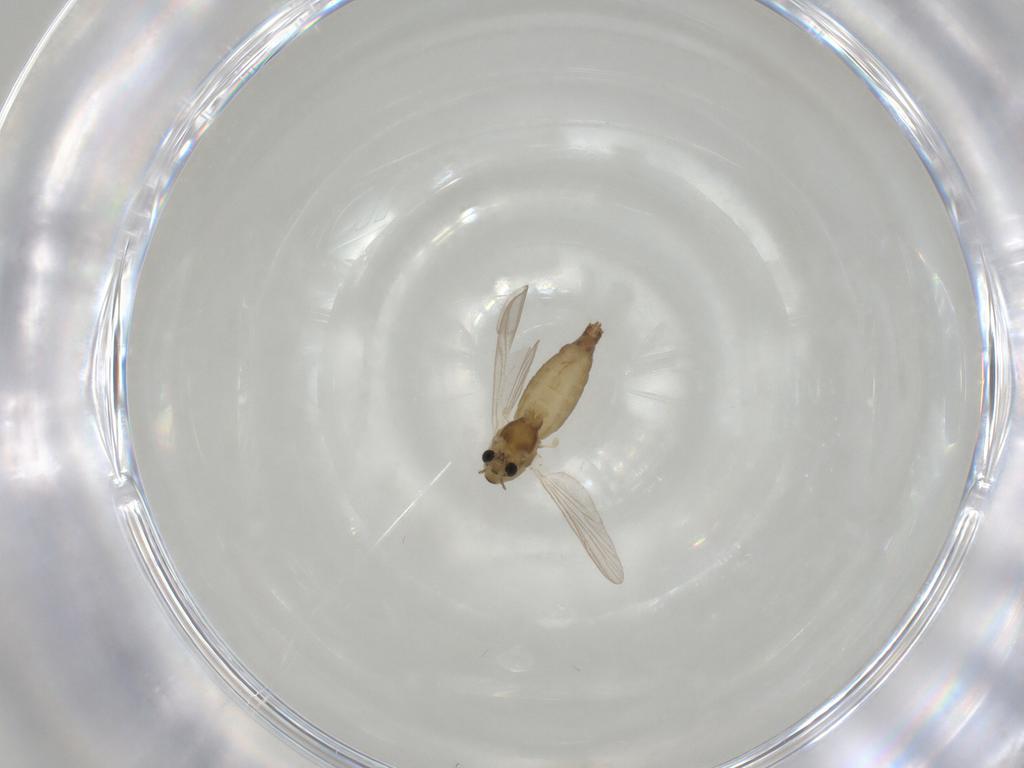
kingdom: Animalia
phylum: Arthropoda
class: Insecta
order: Diptera
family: Chironomidae
